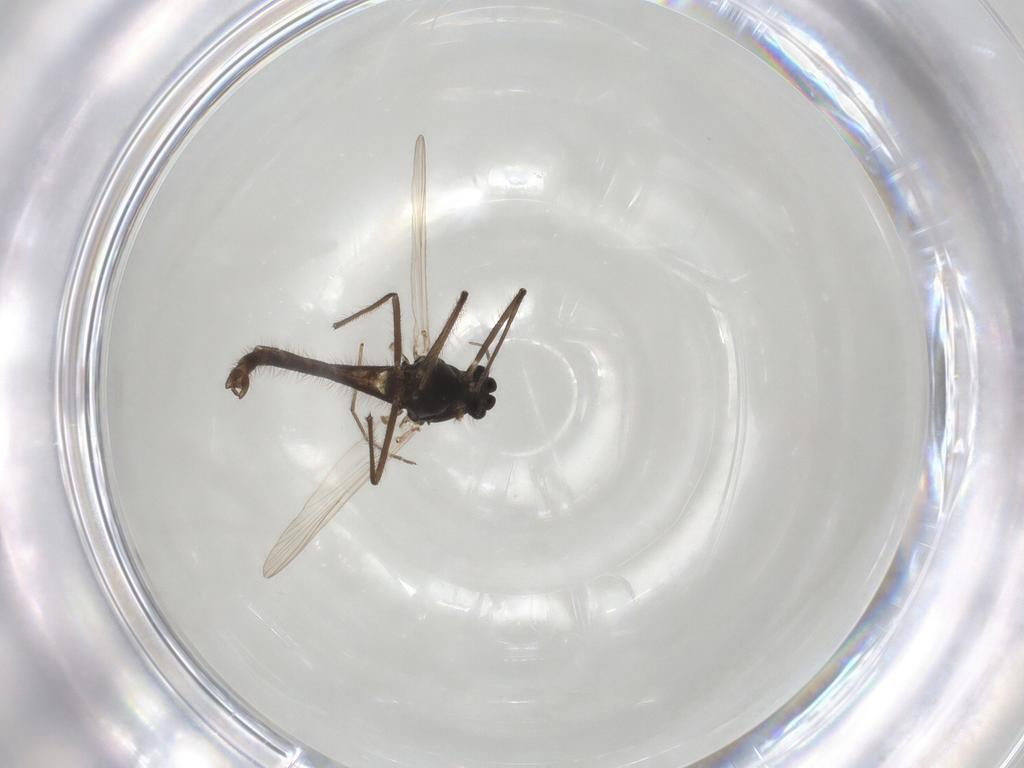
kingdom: Animalia
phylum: Arthropoda
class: Insecta
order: Diptera
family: Chironomidae
